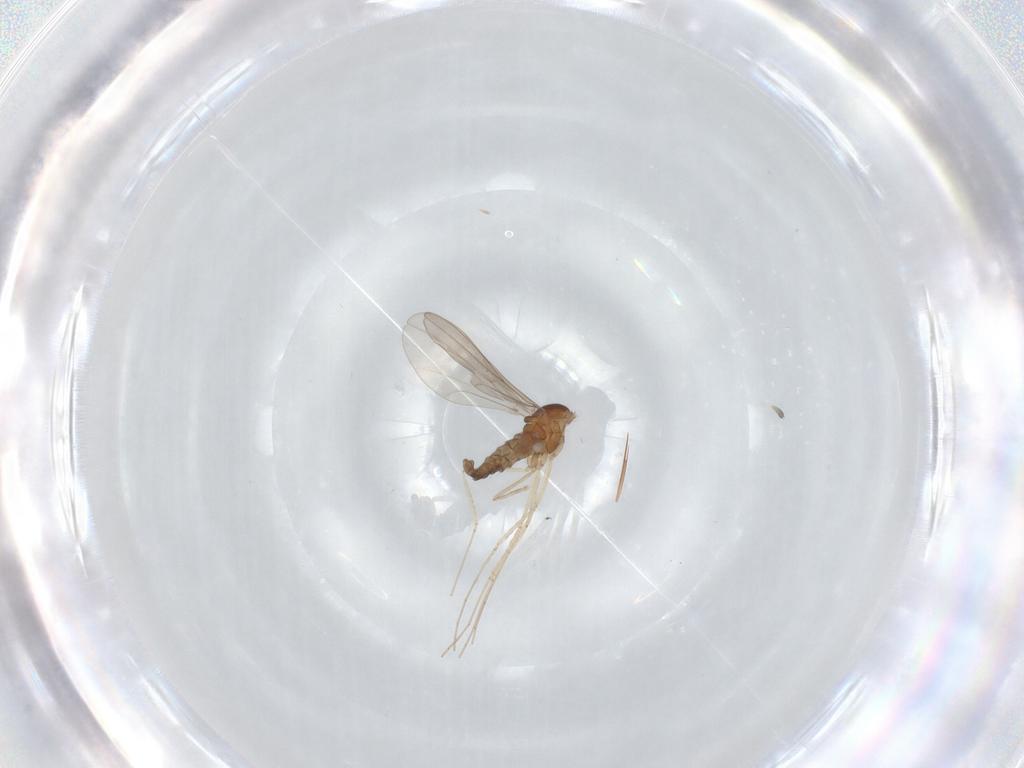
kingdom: Animalia
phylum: Arthropoda
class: Insecta
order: Diptera
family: Cecidomyiidae
